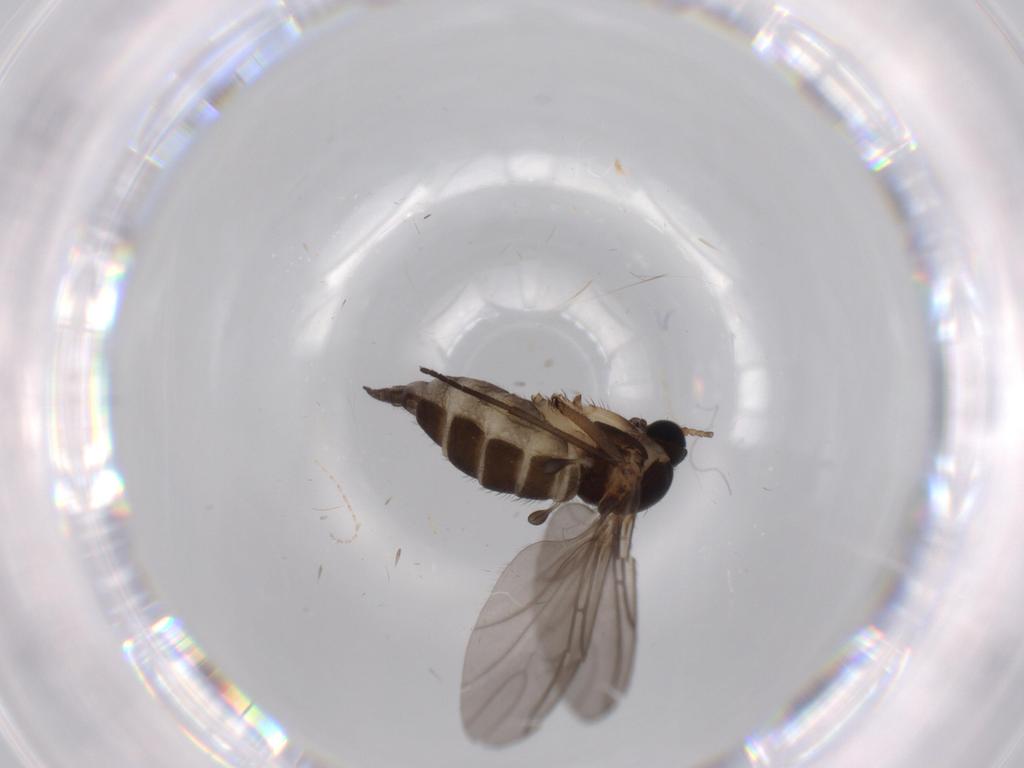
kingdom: Animalia
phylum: Arthropoda
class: Insecta
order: Diptera
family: Sciaridae
